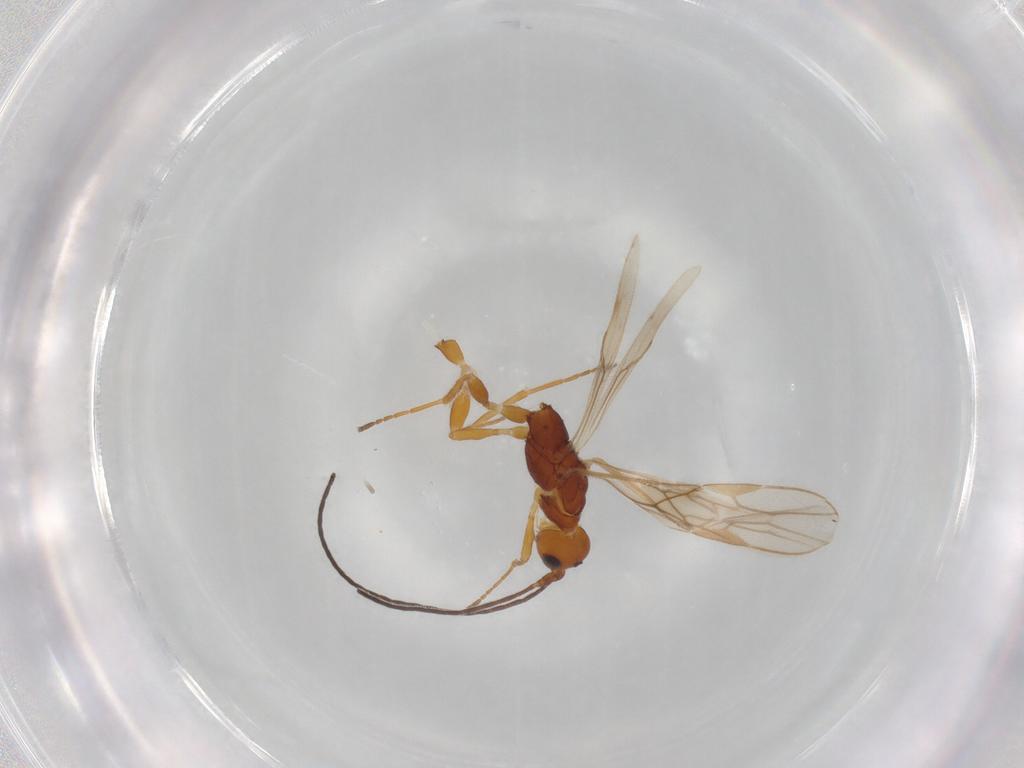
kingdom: Animalia
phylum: Arthropoda
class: Insecta
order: Hymenoptera
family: Braconidae
